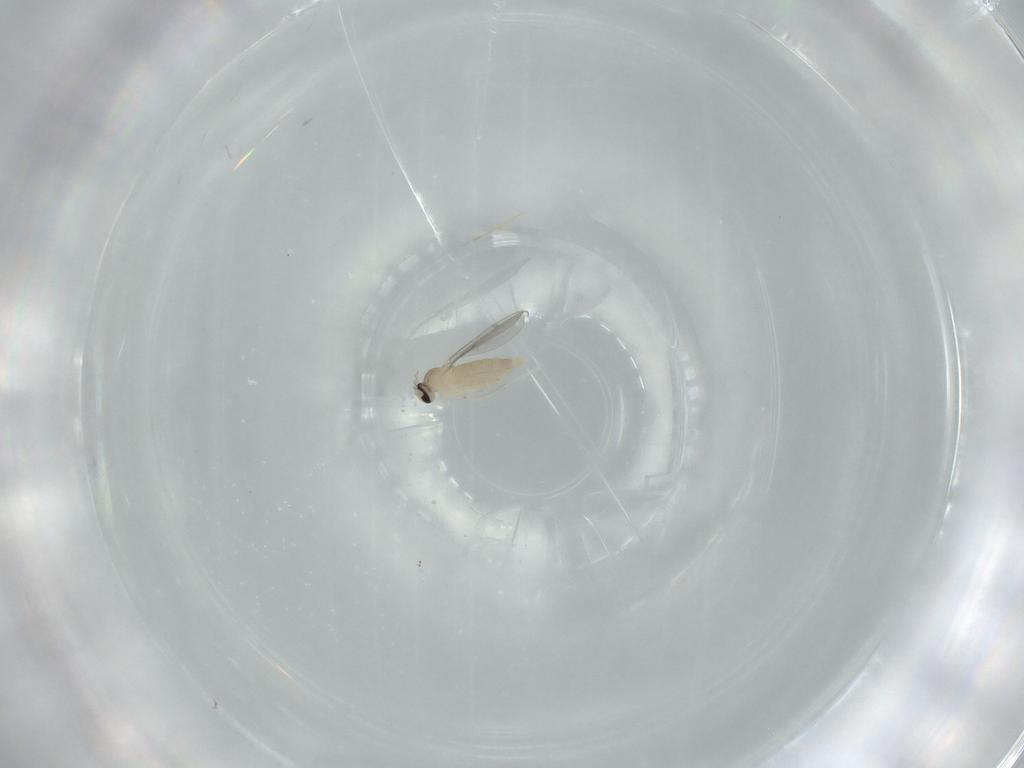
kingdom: Animalia
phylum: Arthropoda
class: Insecta
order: Diptera
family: Cecidomyiidae
